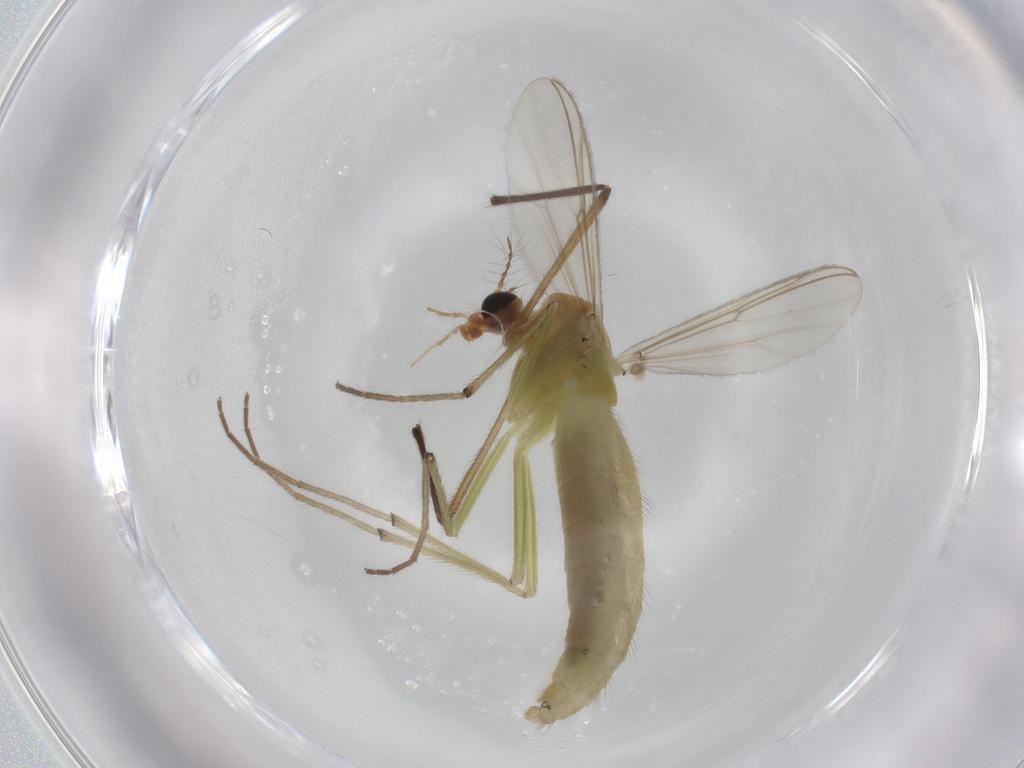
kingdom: Animalia
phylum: Arthropoda
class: Insecta
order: Diptera
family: Chironomidae
